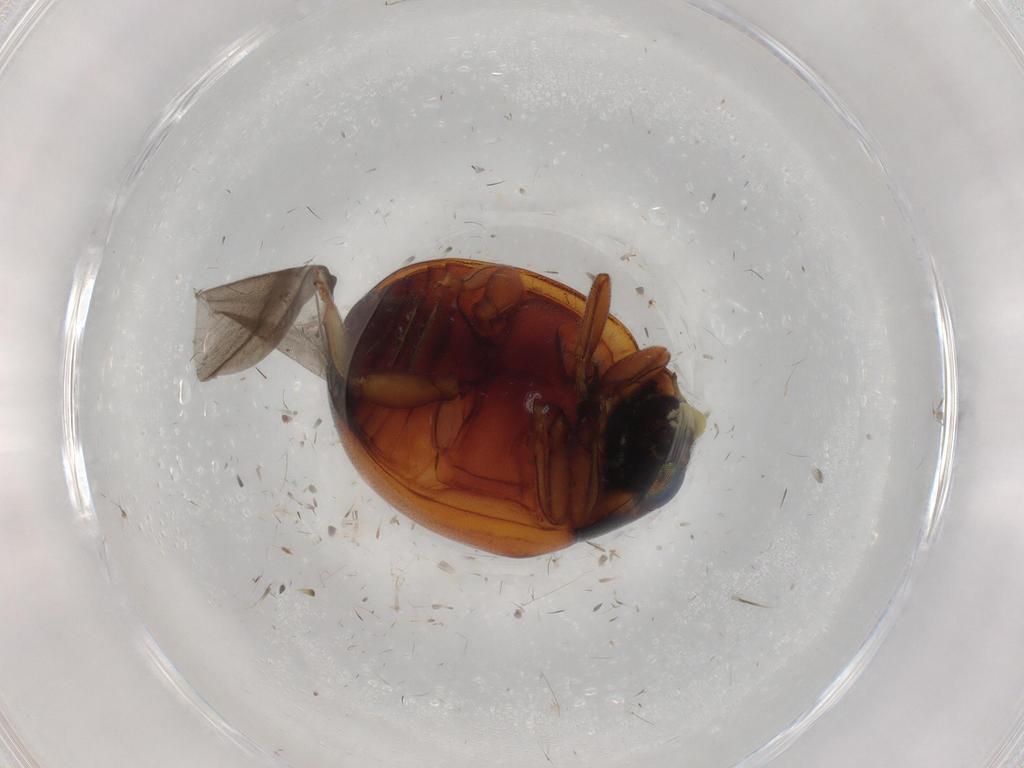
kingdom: Animalia
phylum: Arthropoda
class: Insecta
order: Coleoptera
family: Coccinellidae
